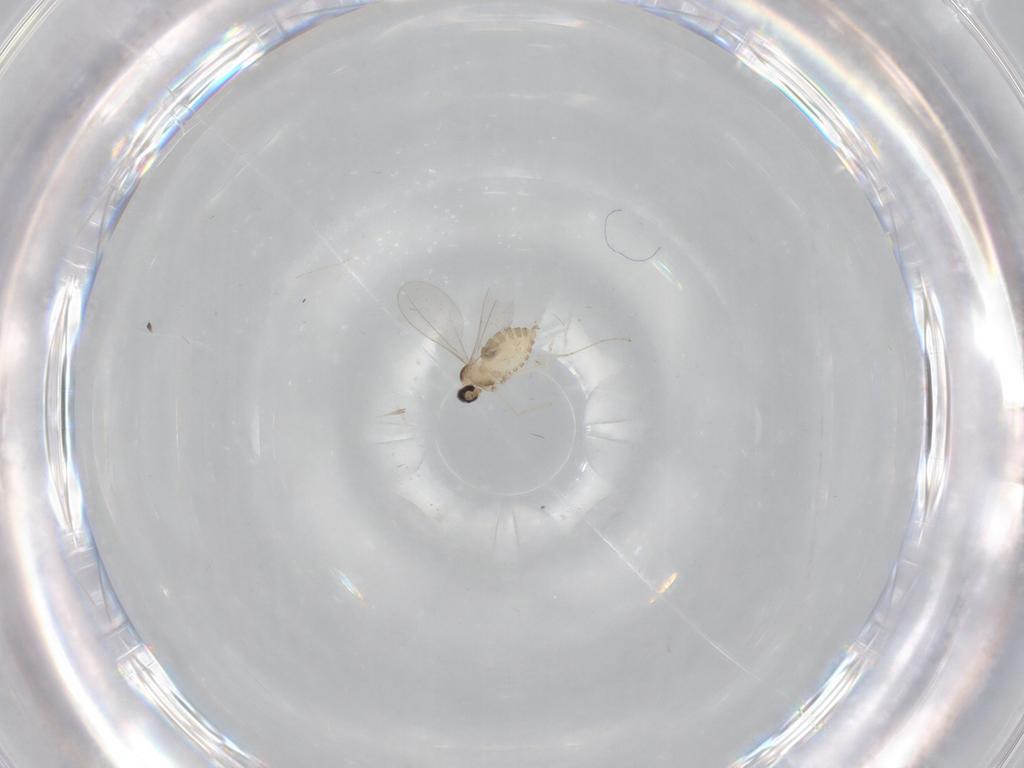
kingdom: Animalia
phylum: Arthropoda
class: Insecta
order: Diptera
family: Cecidomyiidae
